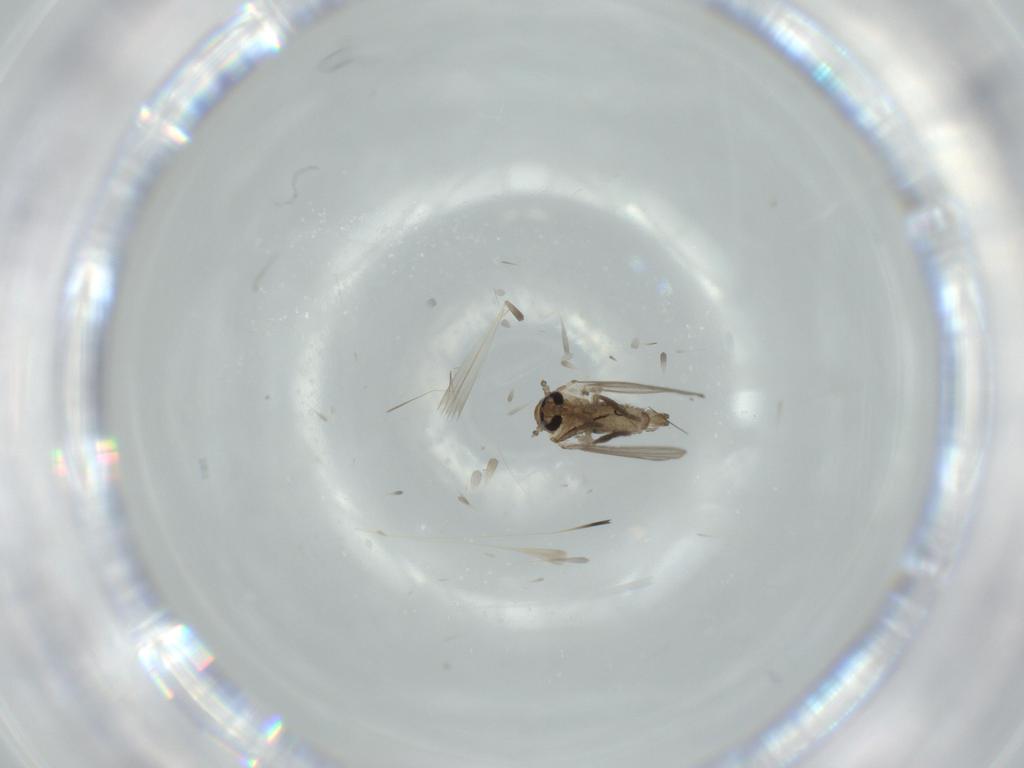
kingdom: Animalia
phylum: Arthropoda
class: Insecta
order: Diptera
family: Psychodidae
